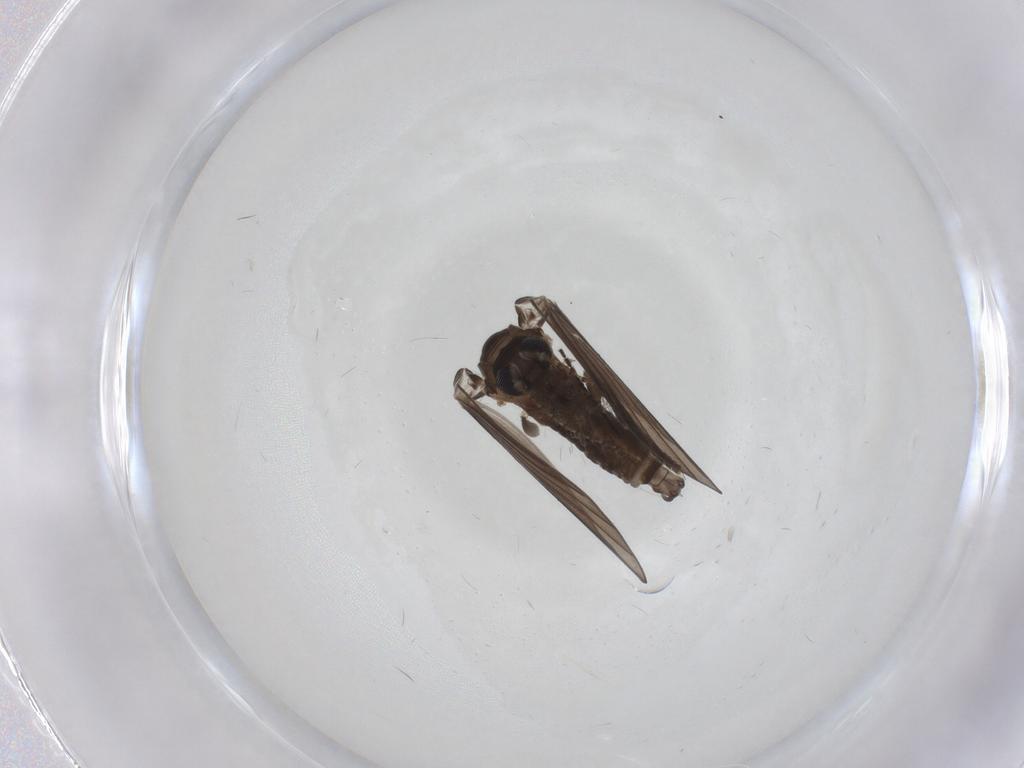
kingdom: Animalia
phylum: Arthropoda
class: Insecta
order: Diptera
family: Psychodidae
